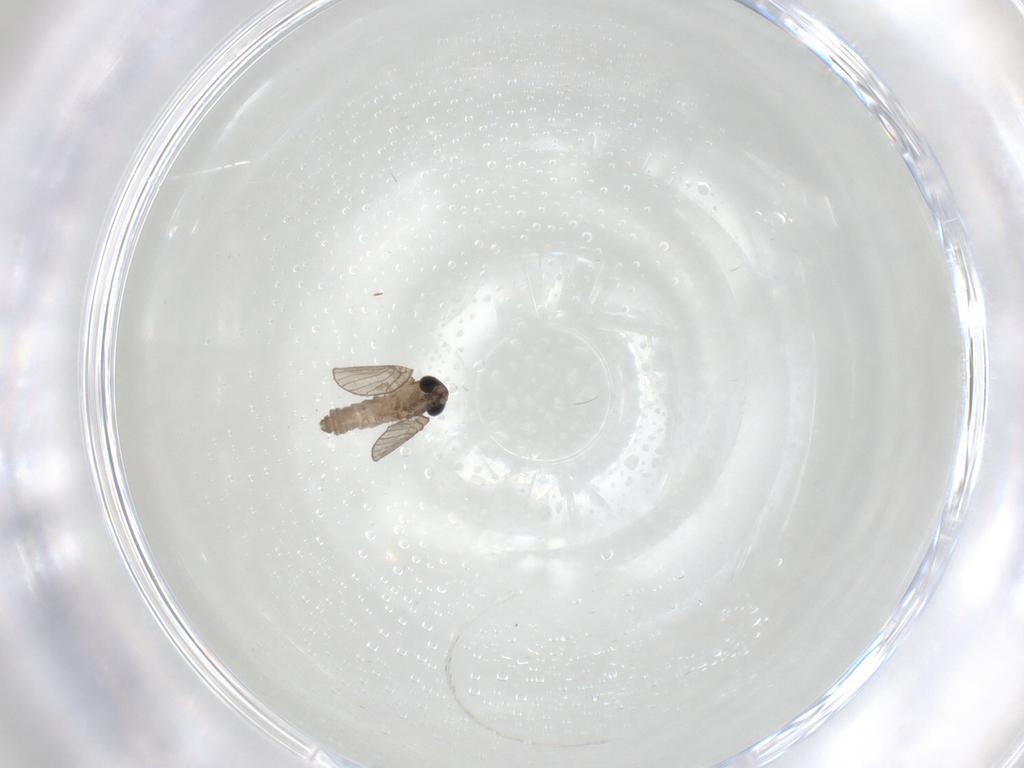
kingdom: Animalia
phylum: Arthropoda
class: Insecta
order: Diptera
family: Psychodidae
